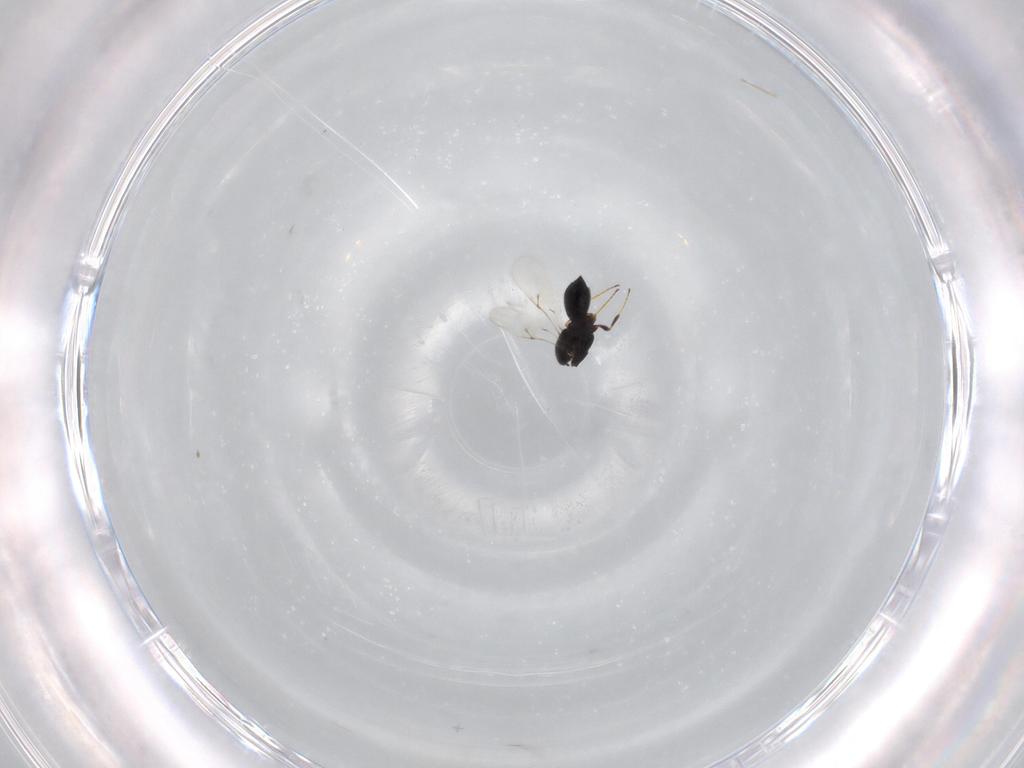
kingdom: Animalia
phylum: Arthropoda
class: Insecta
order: Hymenoptera
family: Scelionidae
